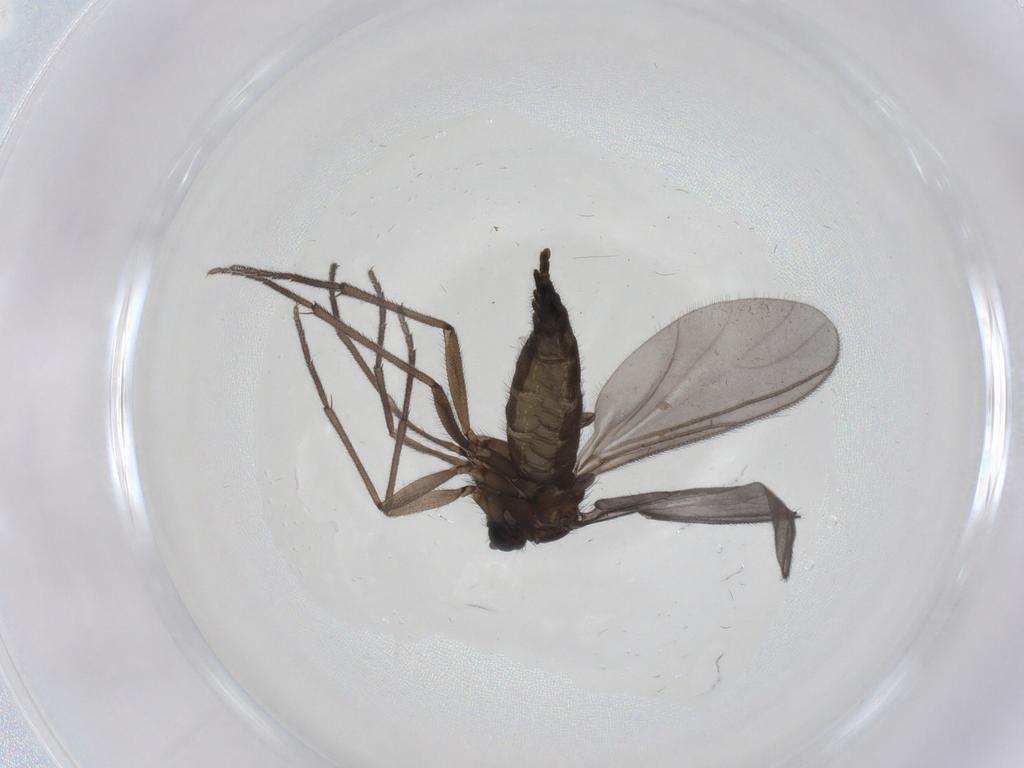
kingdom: Animalia
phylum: Arthropoda
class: Insecta
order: Diptera
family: Sciaridae
